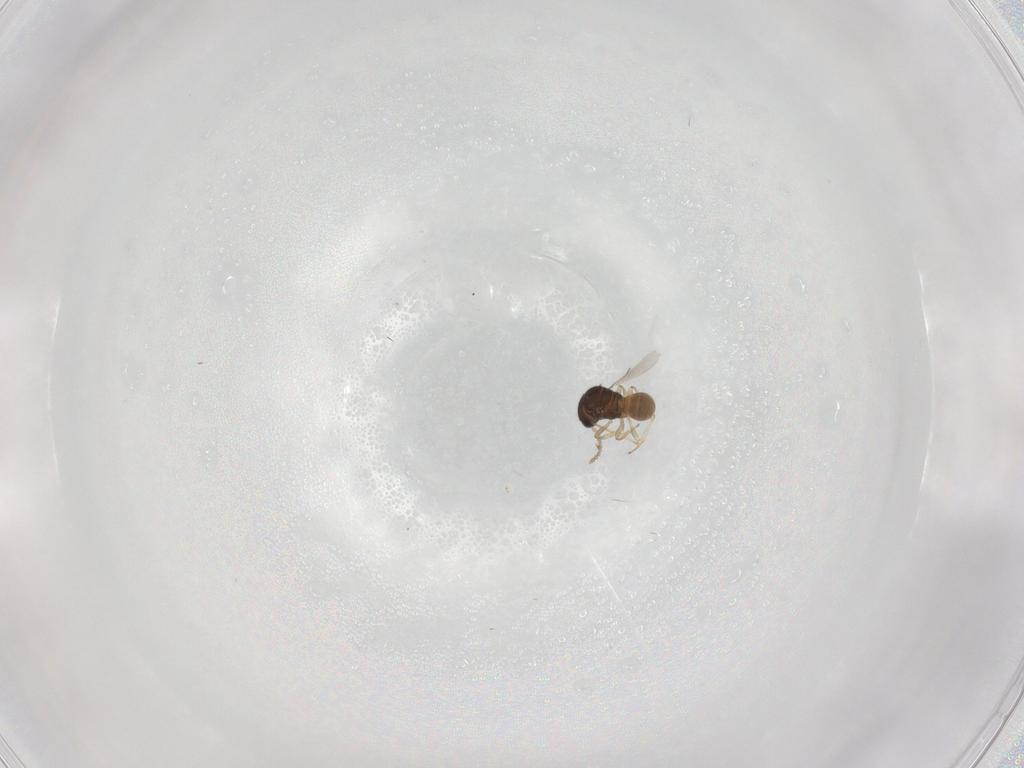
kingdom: Animalia
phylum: Arthropoda
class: Insecta
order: Hymenoptera
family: Scelionidae
